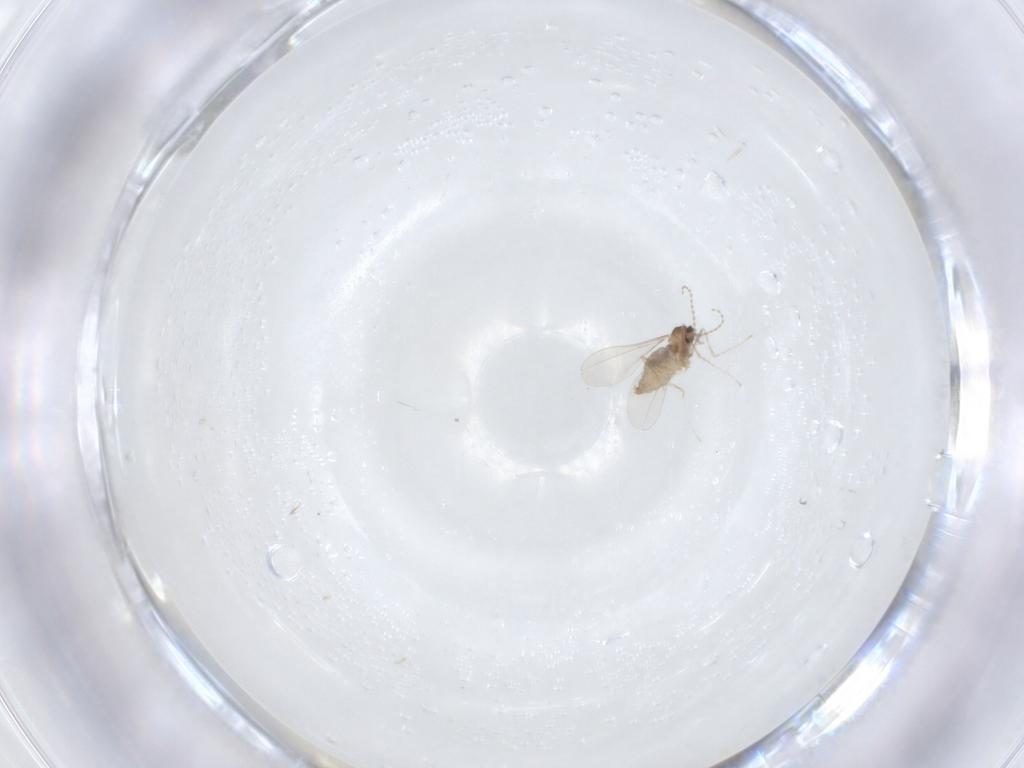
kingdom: Animalia
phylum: Arthropoda
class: Insecta
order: Diptera
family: Cecidomyiidae
